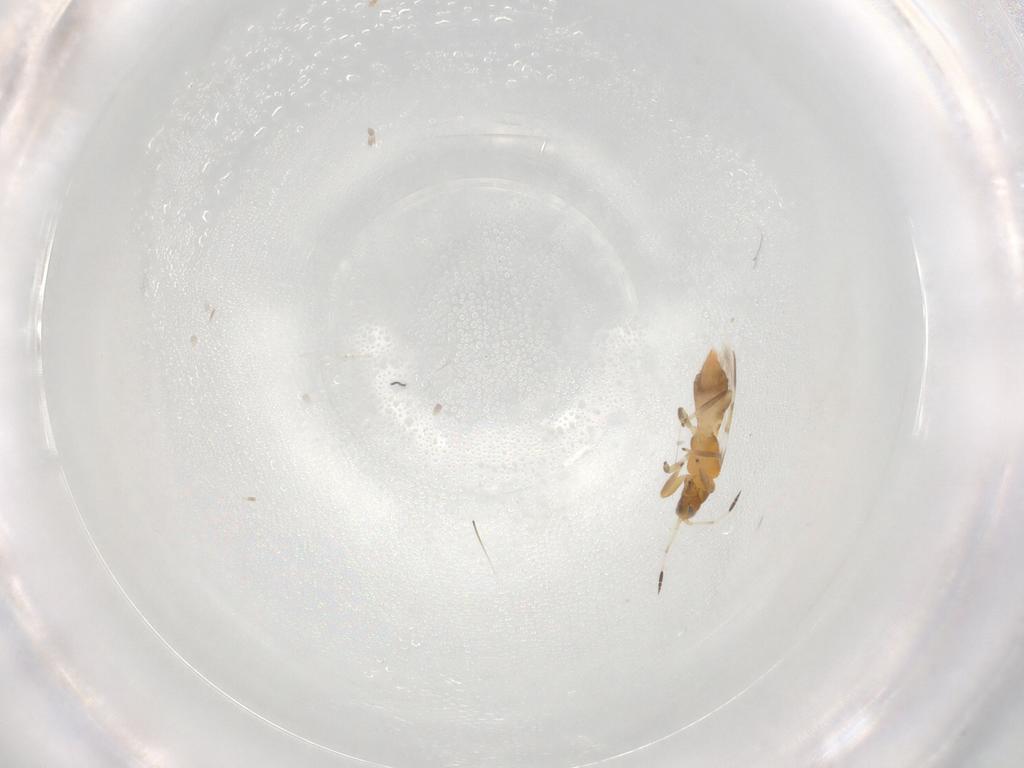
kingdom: Animalia
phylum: Arthropoda
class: Insecta
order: Thysanoptera
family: Aeolothripidae
